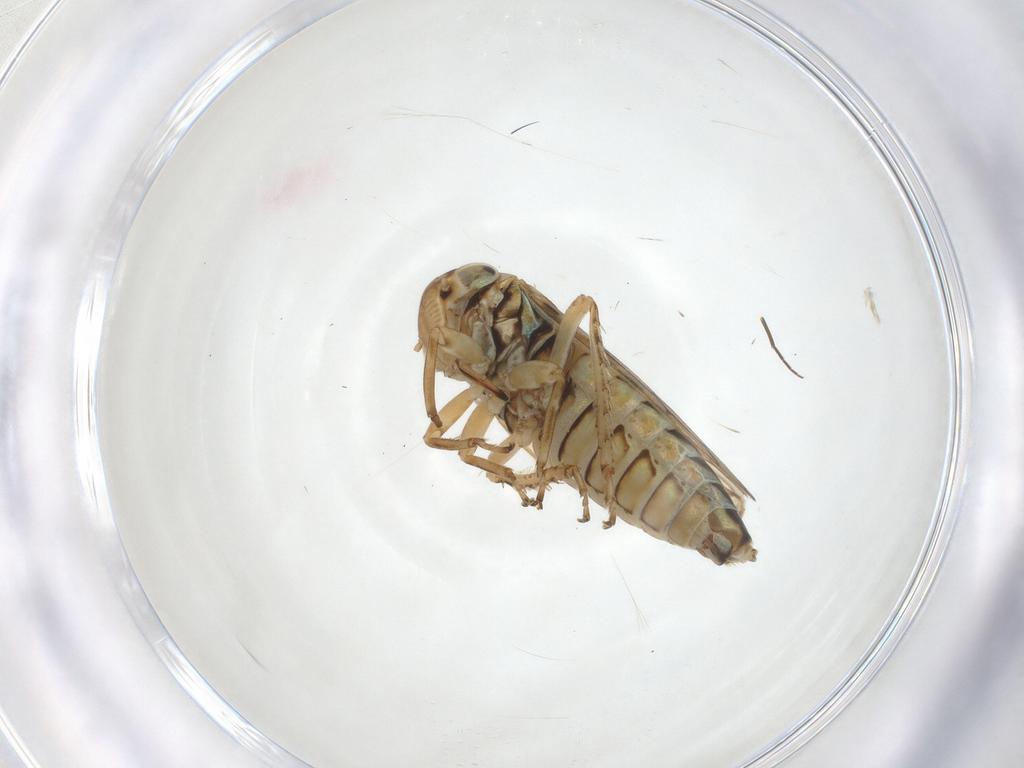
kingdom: Animalia
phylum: Arthropoda
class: Insecta
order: Hemiptera
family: Cicadellidae
